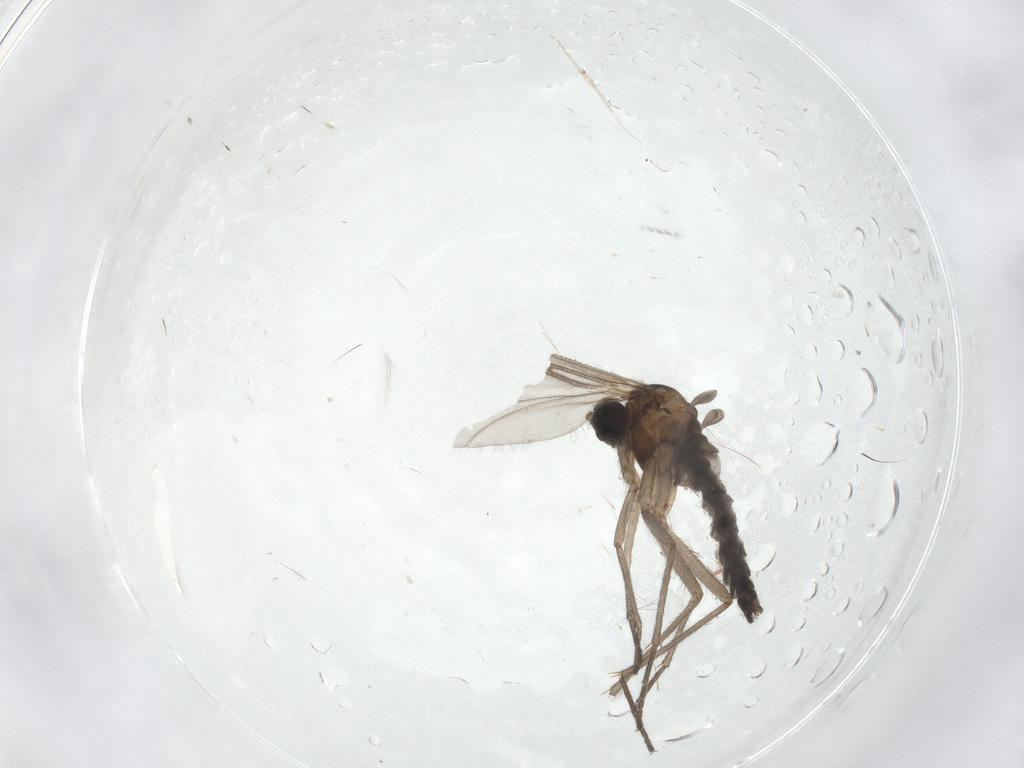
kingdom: Animalia
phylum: Arthropoda
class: Insecta
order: Diptera
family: Sciaridae
